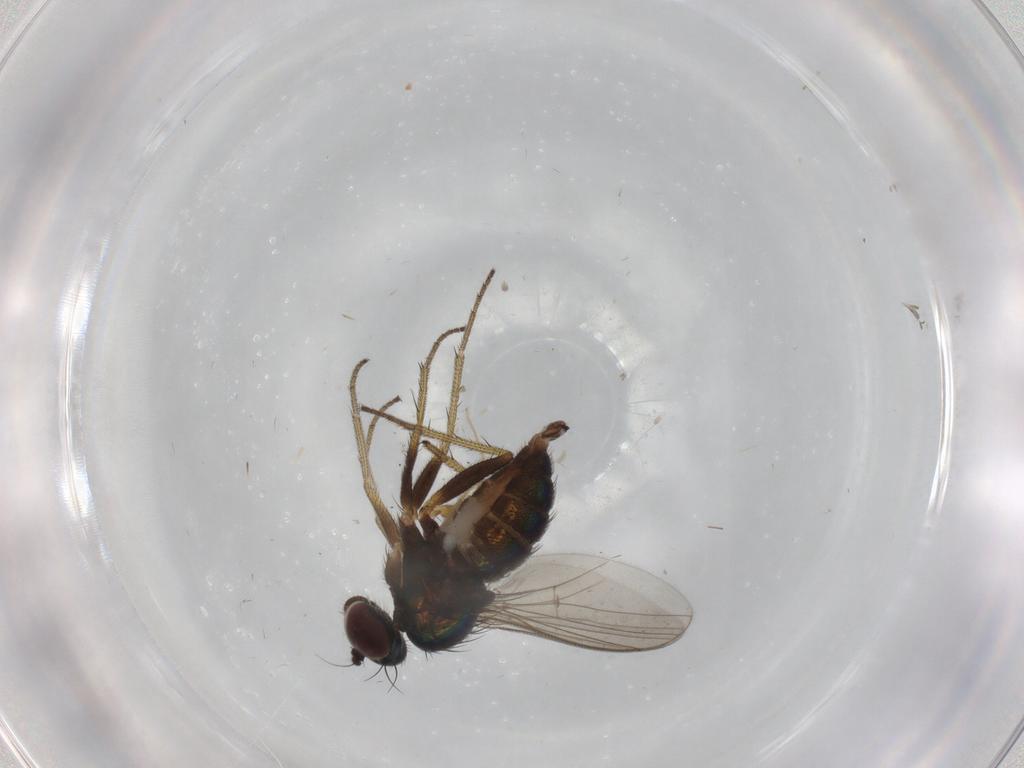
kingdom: Animalia
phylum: Arthropoda
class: Insecta
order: Diptera
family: Dolichopodidae
